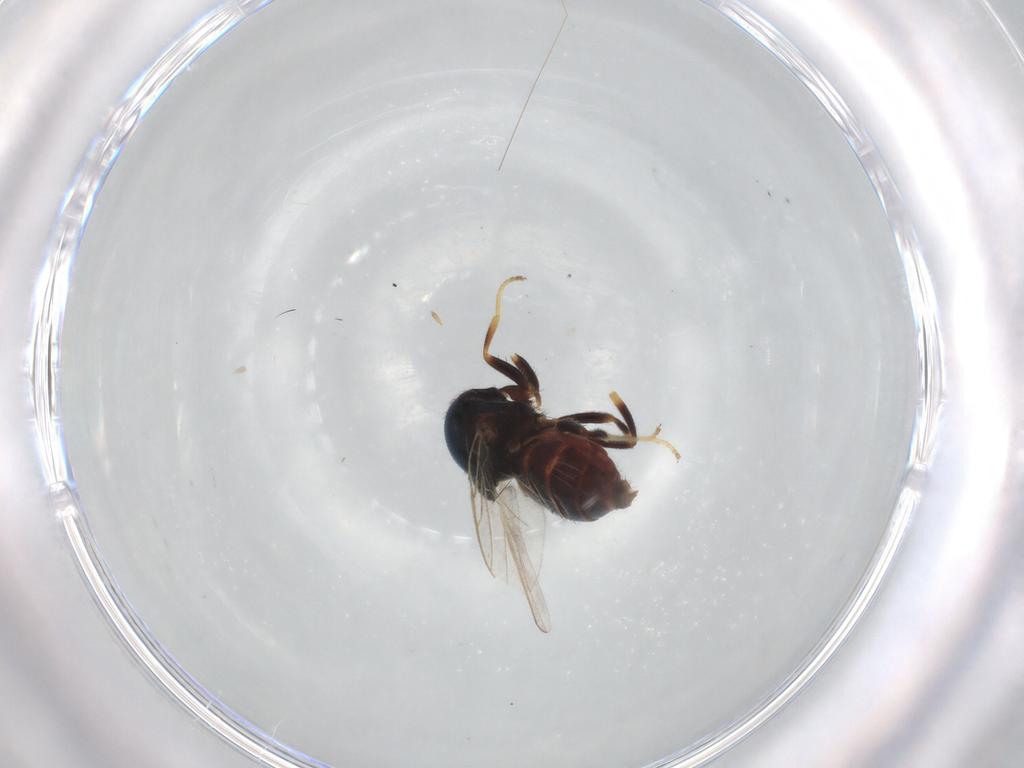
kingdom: Animalia
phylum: Arthropoda
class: Insecta
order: Diptera
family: Chloropidae
